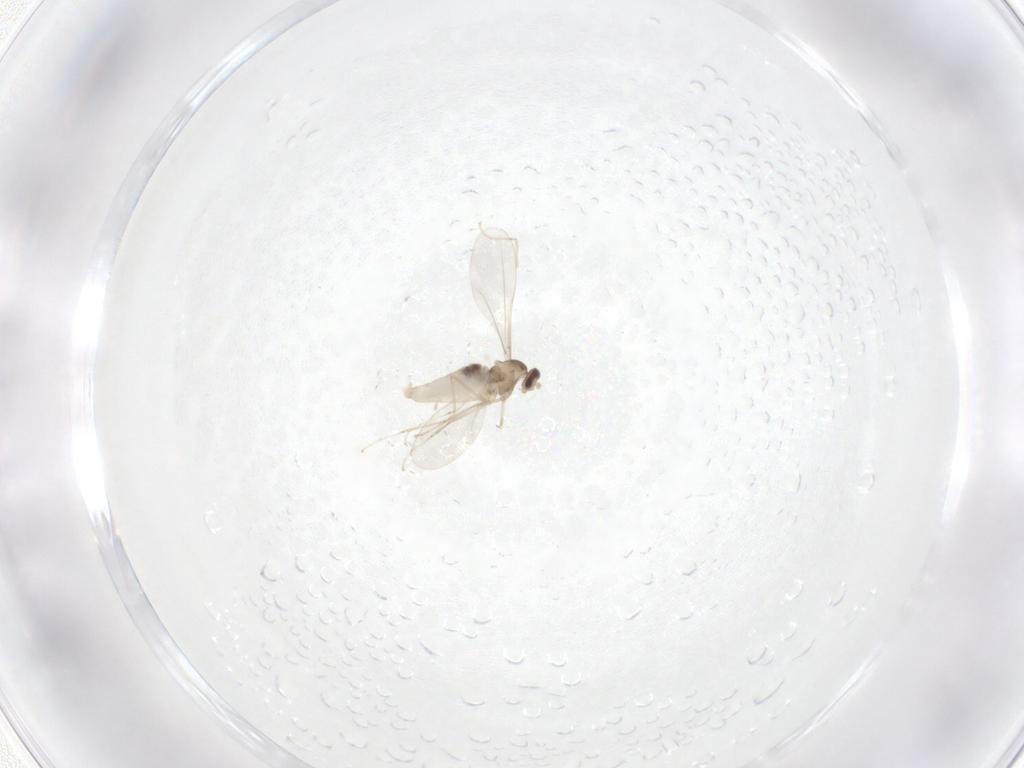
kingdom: Animalia
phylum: Arthropoda
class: Insecta
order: Diptera
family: Cecidomyiidae
